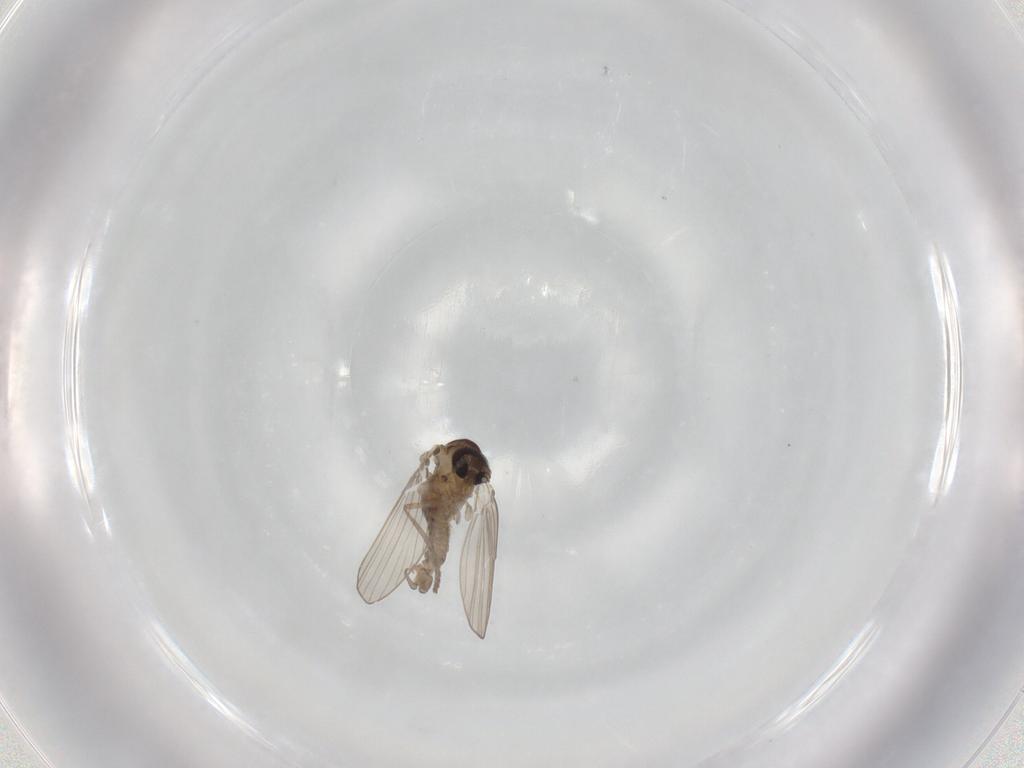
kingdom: Animalia
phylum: Arthropoda
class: Insecta
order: Diptera
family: Psychodidae
